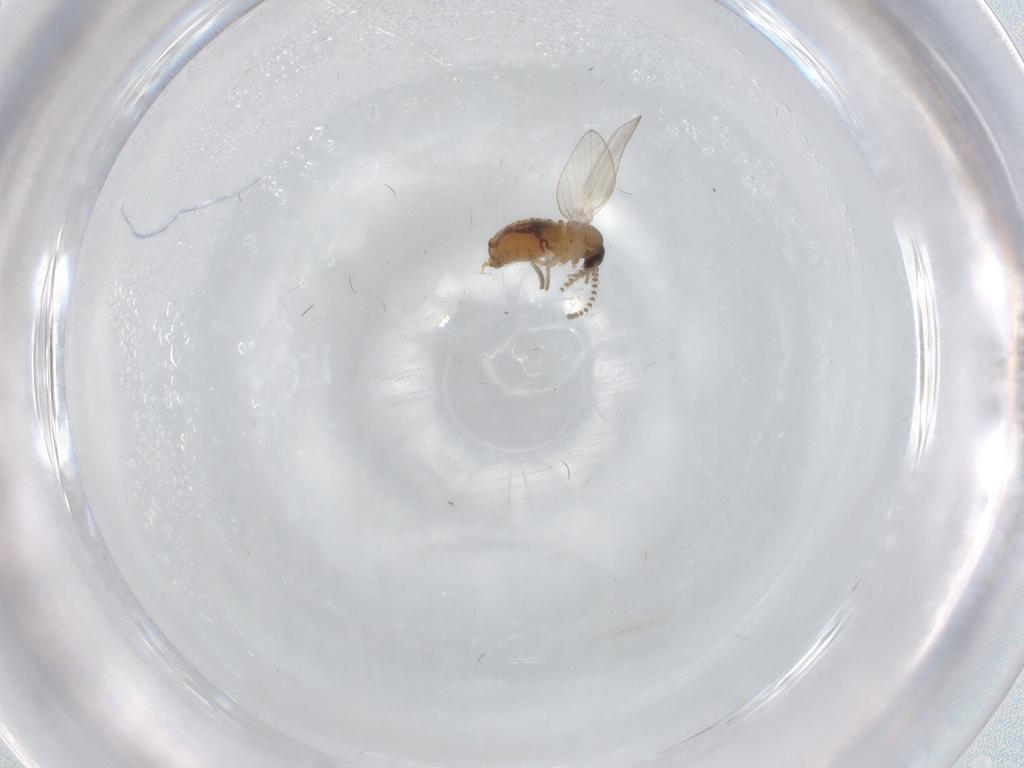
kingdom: Animalia
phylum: Arthropoda
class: Insecta
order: Diptera
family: Psychodidae
